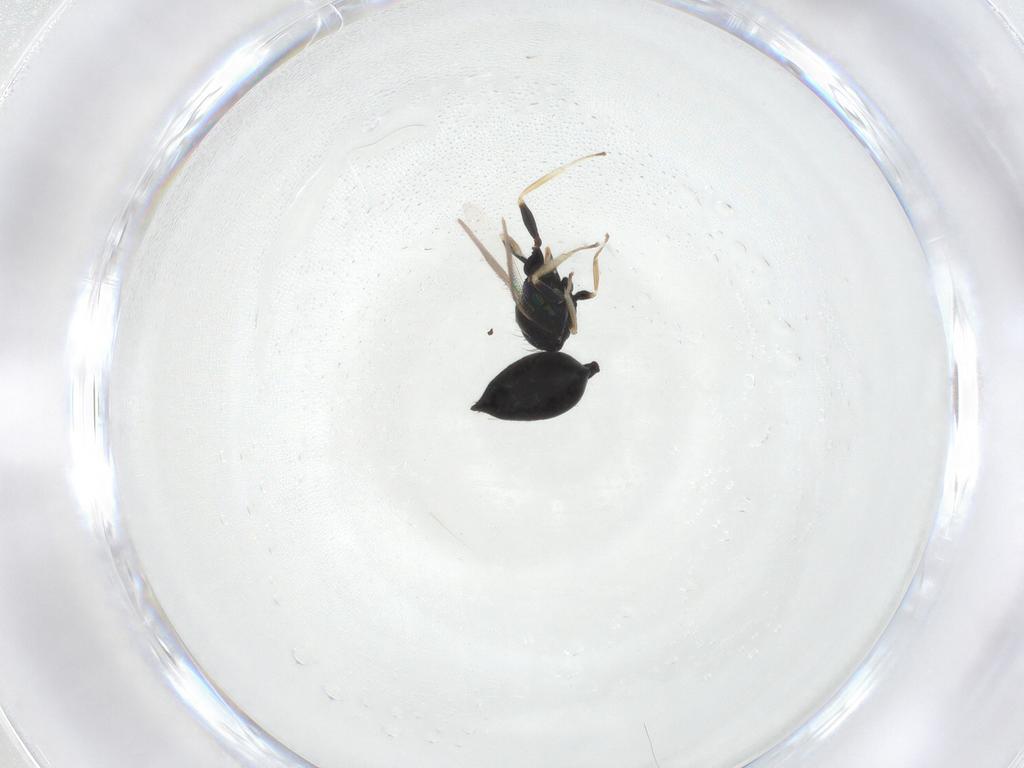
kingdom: Animalia
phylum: Arthropoda
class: Insecta
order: Hymenoptera
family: Eulophidae
